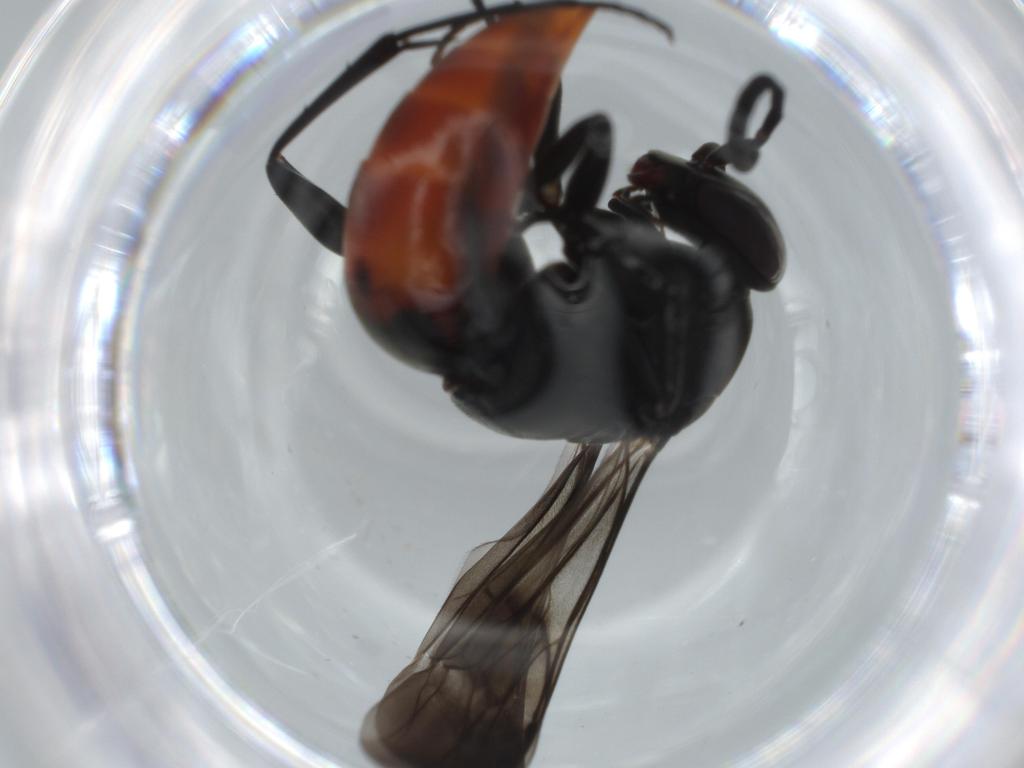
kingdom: Animalia
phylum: Arthropoda
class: Insecta
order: Hymenoptera
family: Pompilidae
